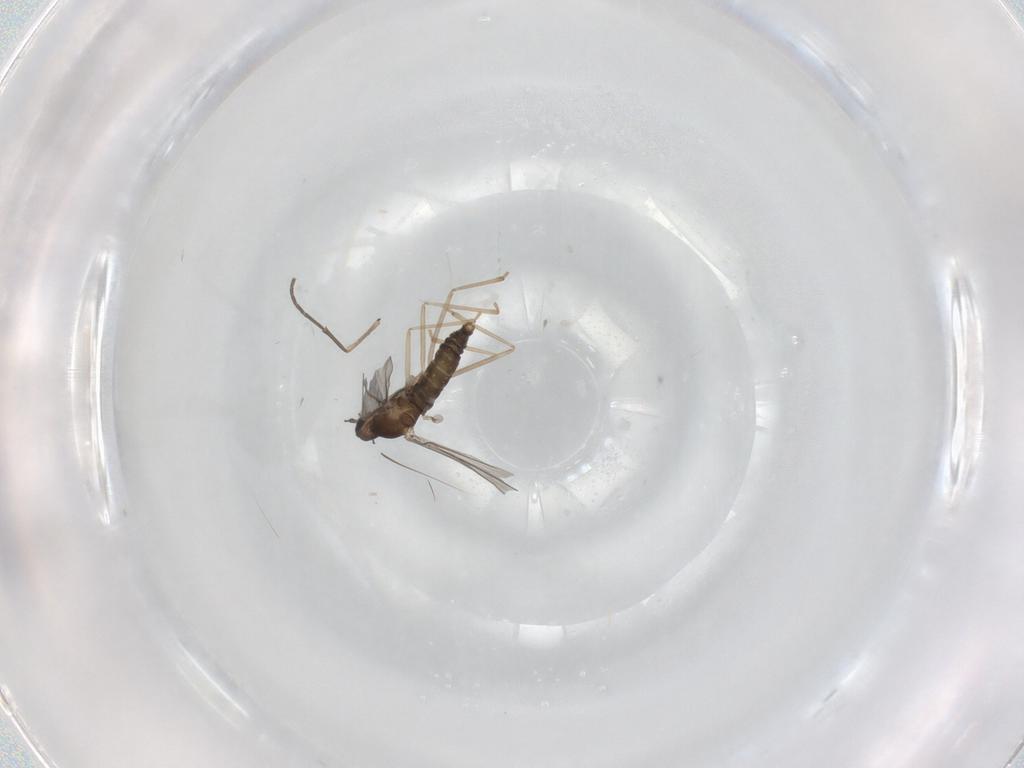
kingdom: Animalia
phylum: Arthropoda
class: Insecta
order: Diptera
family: Cecidomyiidae
